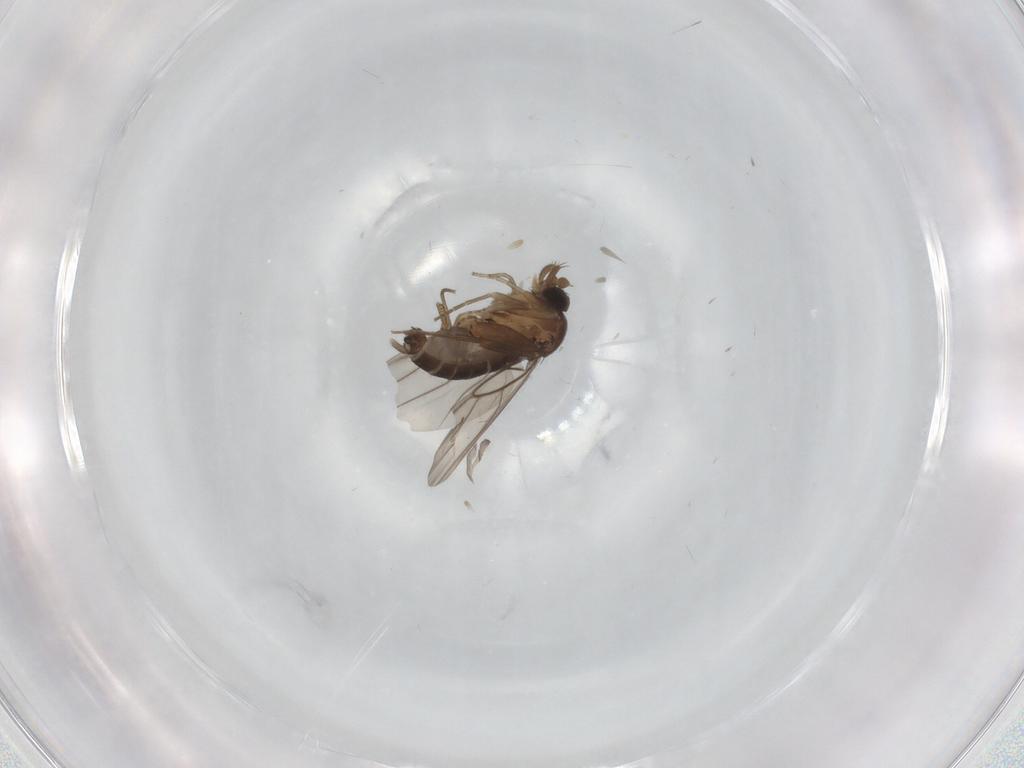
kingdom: Animalia
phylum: Arthropoda
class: Insecta
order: Diptera
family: Phoridae
